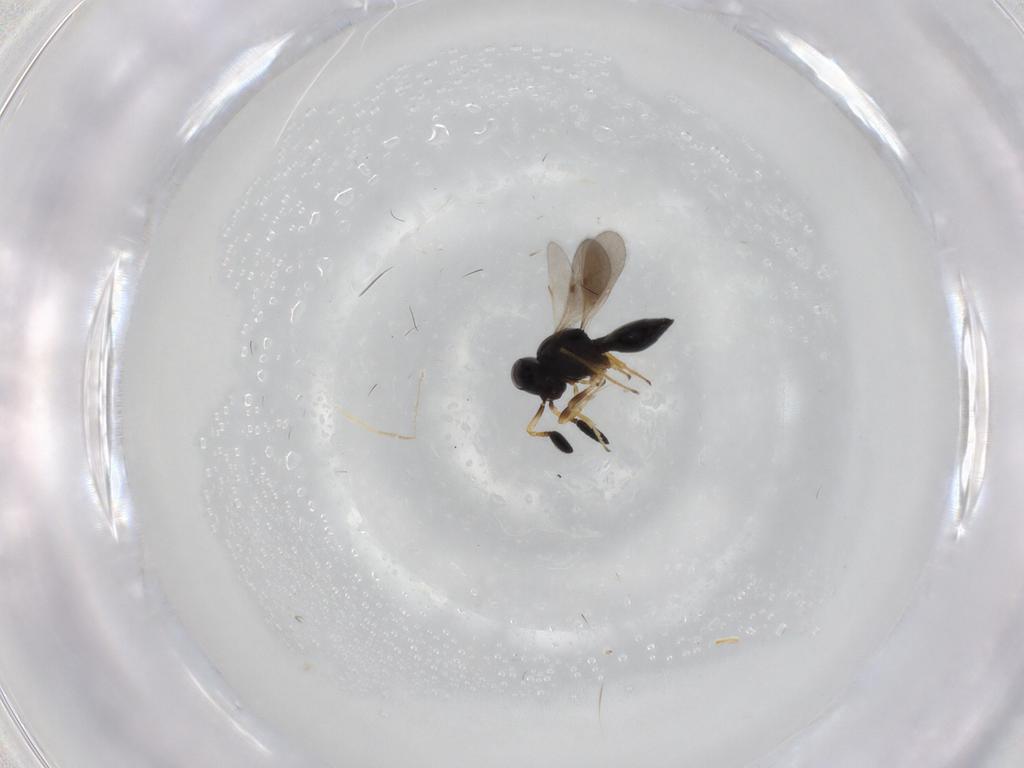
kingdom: Animalia
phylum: Arthropoda
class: Insecta
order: Hymenoptera
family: Scelionidae
